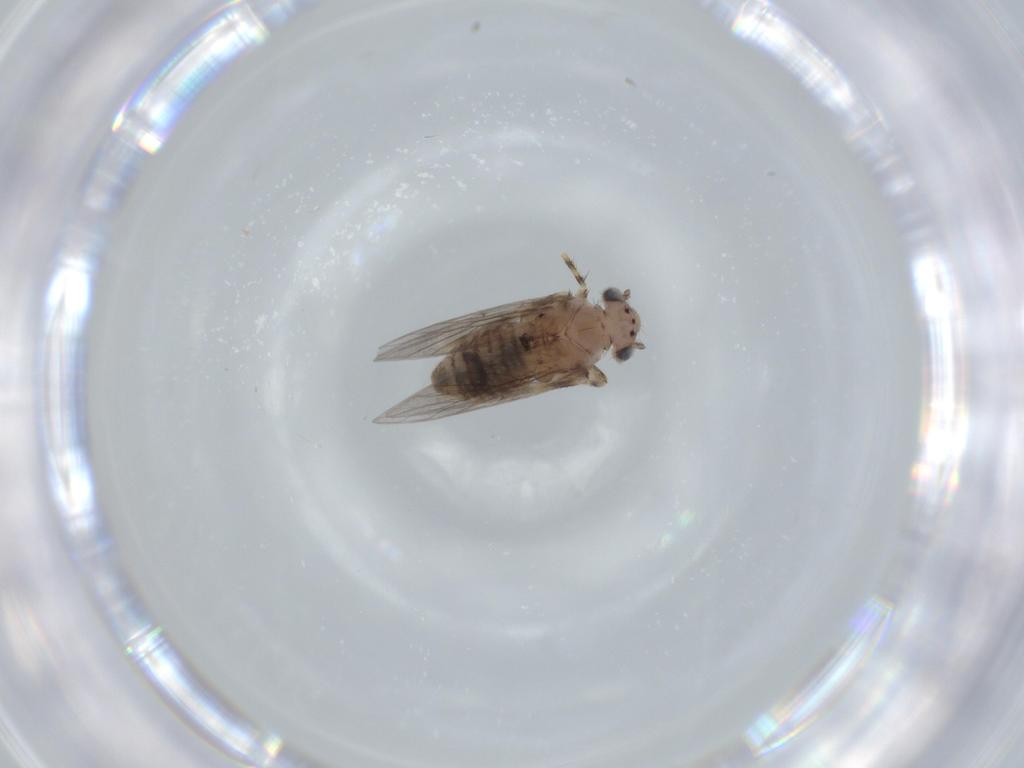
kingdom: Animalia
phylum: Arthropoda
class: Insecta
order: Psocodea
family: Lepidopsocidae
